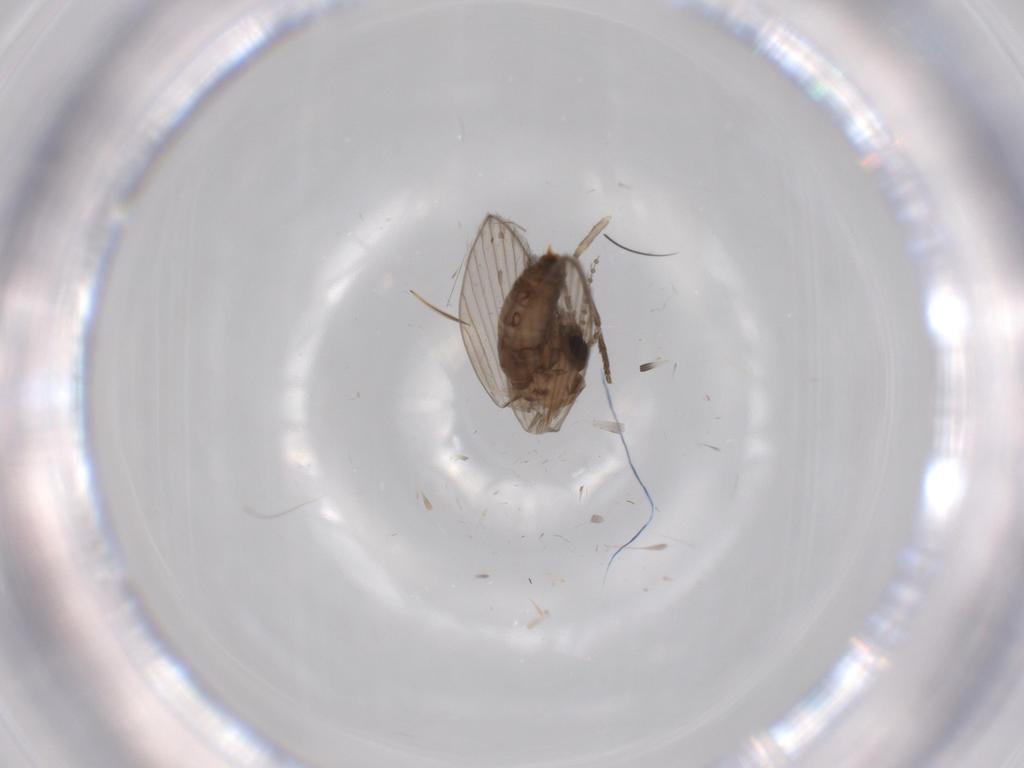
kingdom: Animalia
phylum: Arthropoda
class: Insecta
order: Diptera
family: Psychodidae
